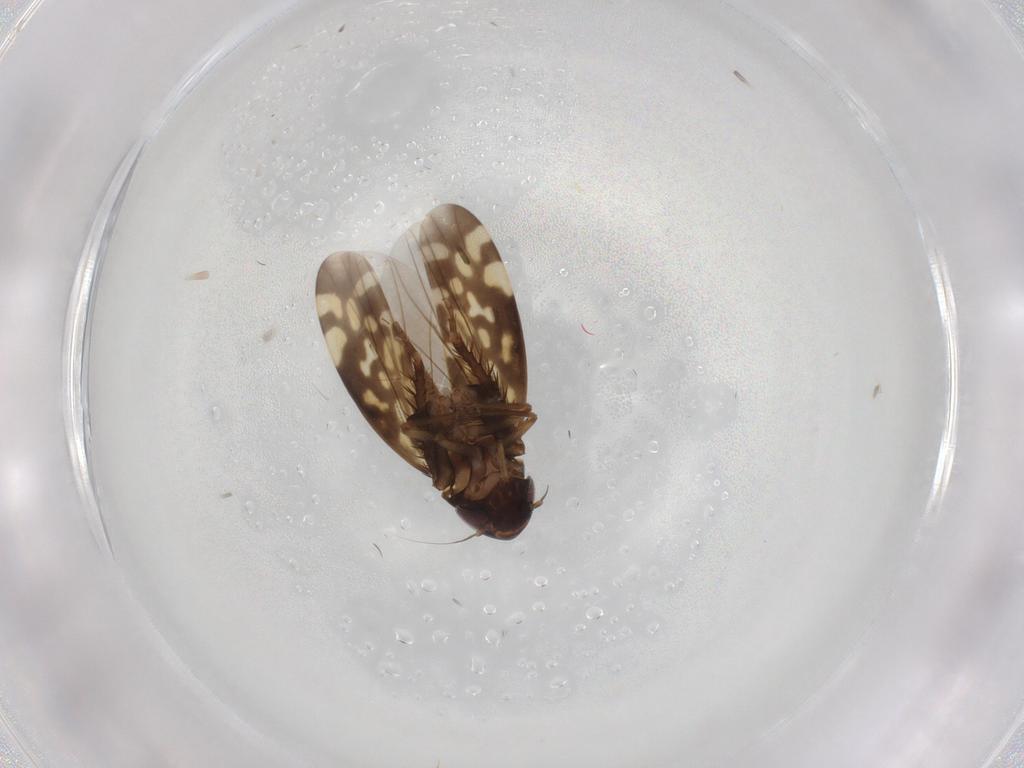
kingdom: Animalia
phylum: Arthropoda
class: Insecta
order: Hemiptera
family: Cicadellidae
